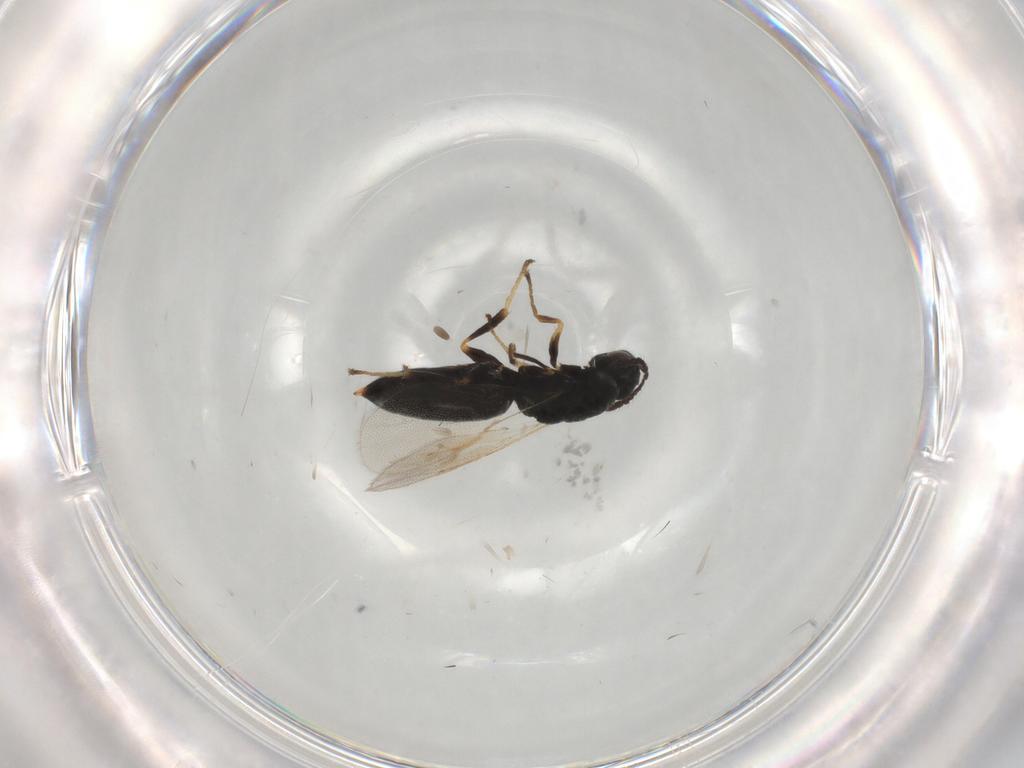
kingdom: Animalia
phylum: Arthropoda
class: Insecta
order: Hymenoptera
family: Eurytomidae
